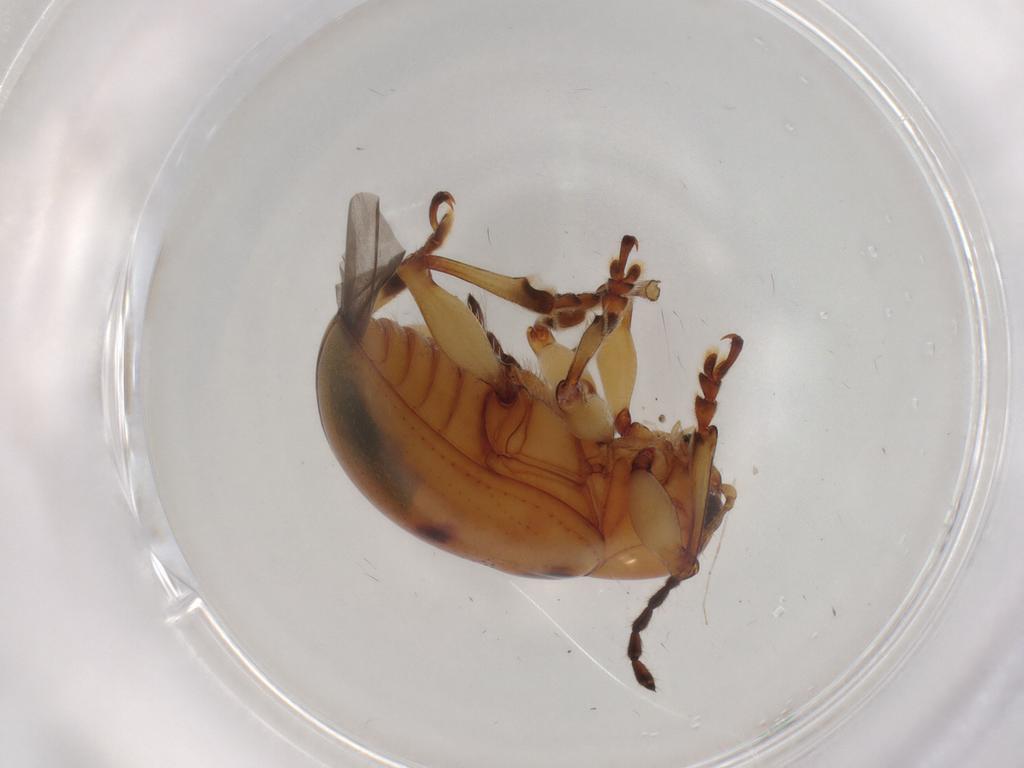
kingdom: Animalia
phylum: Arthropoda
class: Insecta
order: Coleoptera
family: Chrysomelidae
